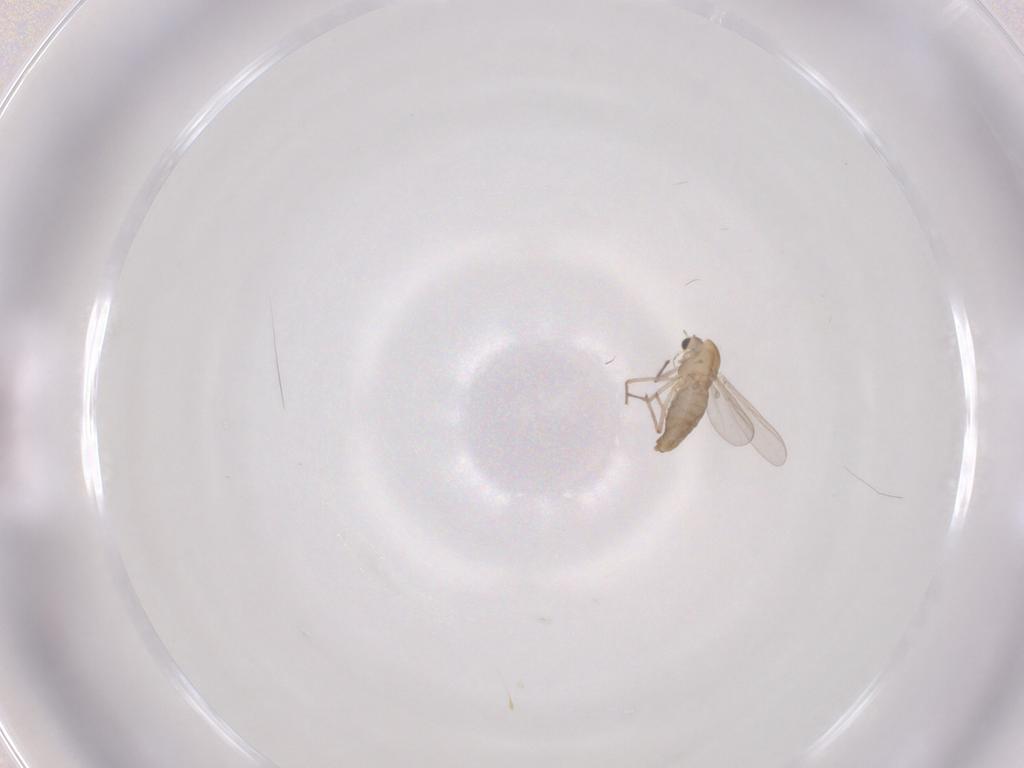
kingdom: Animalia
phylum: Arthropoda
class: Insecta
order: Diptera
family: Chironomidae
